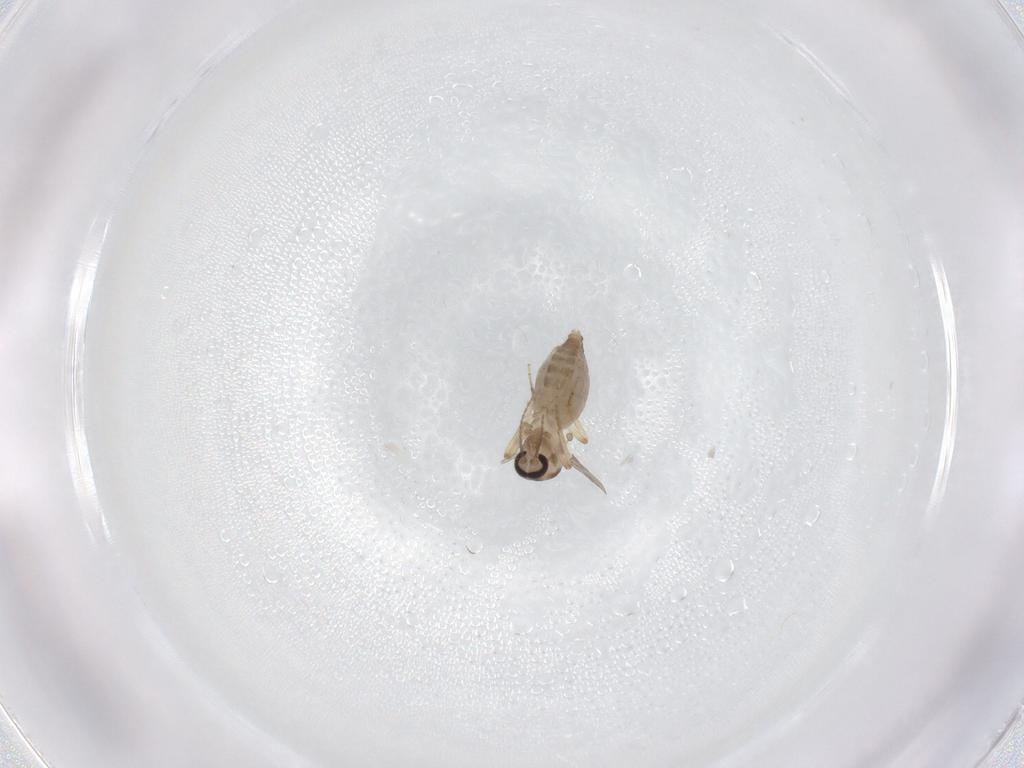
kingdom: Animalia
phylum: Arthropoda
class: Insecta
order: Diptera
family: Ceratopogonidae
